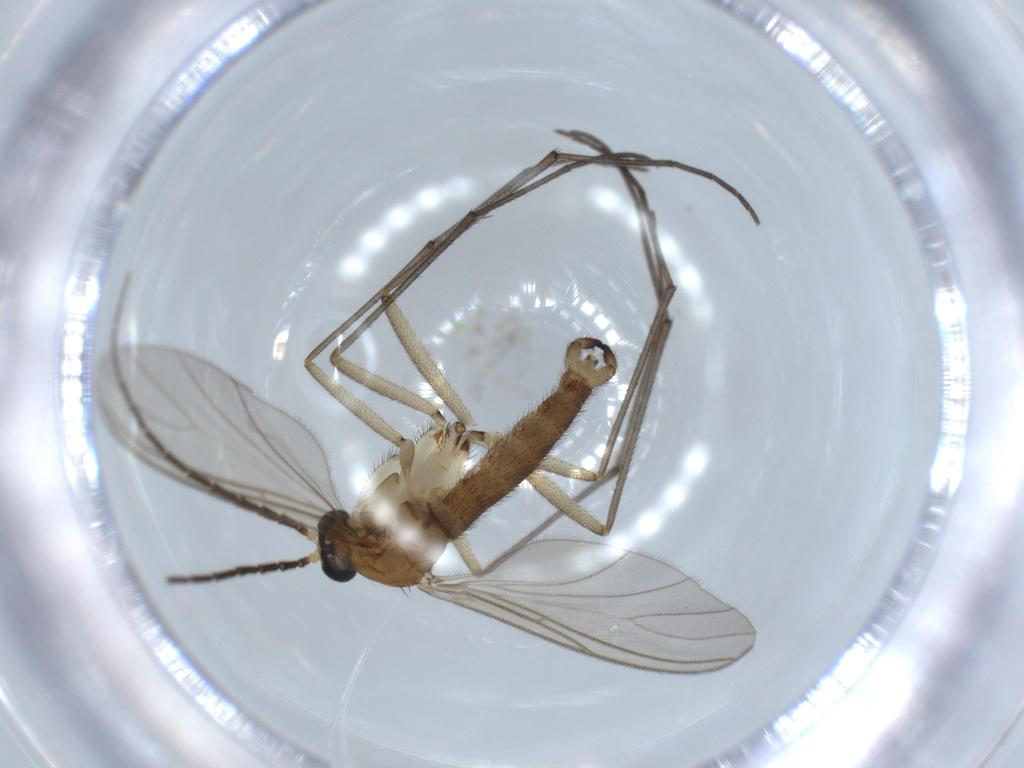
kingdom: Animalia
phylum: Arthropoda
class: Insecta
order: Diptera
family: Sciaridae
